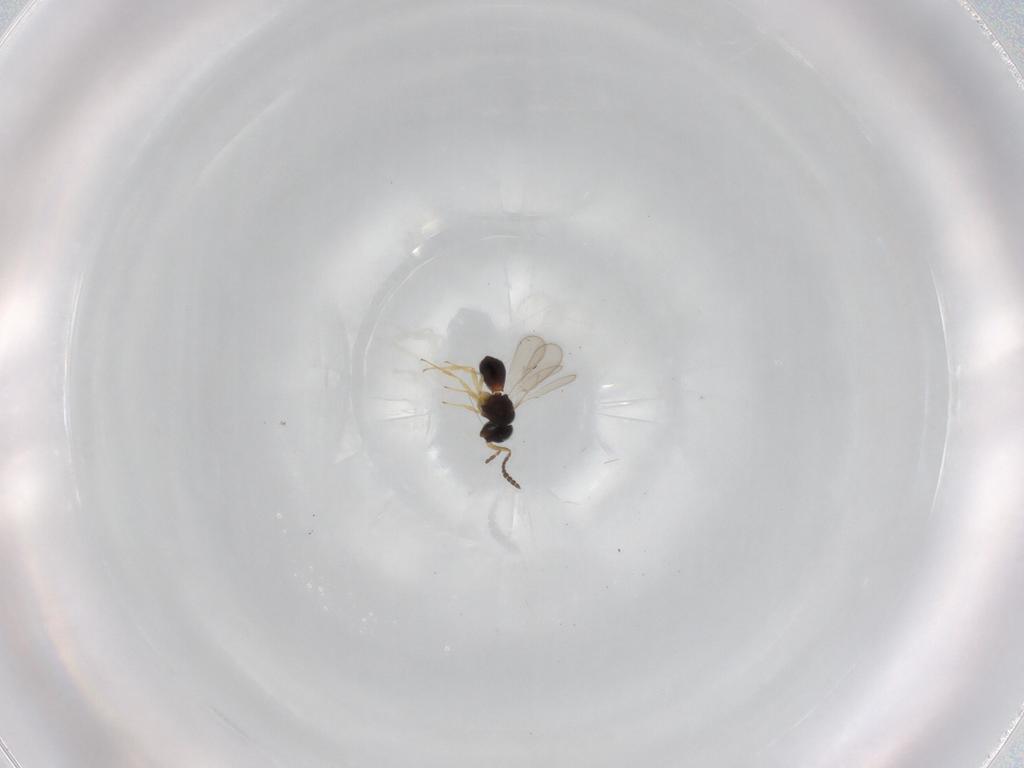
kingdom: Animalia
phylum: Arthropoda
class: Insecta
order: Hymenoptera
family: Scelionidae
